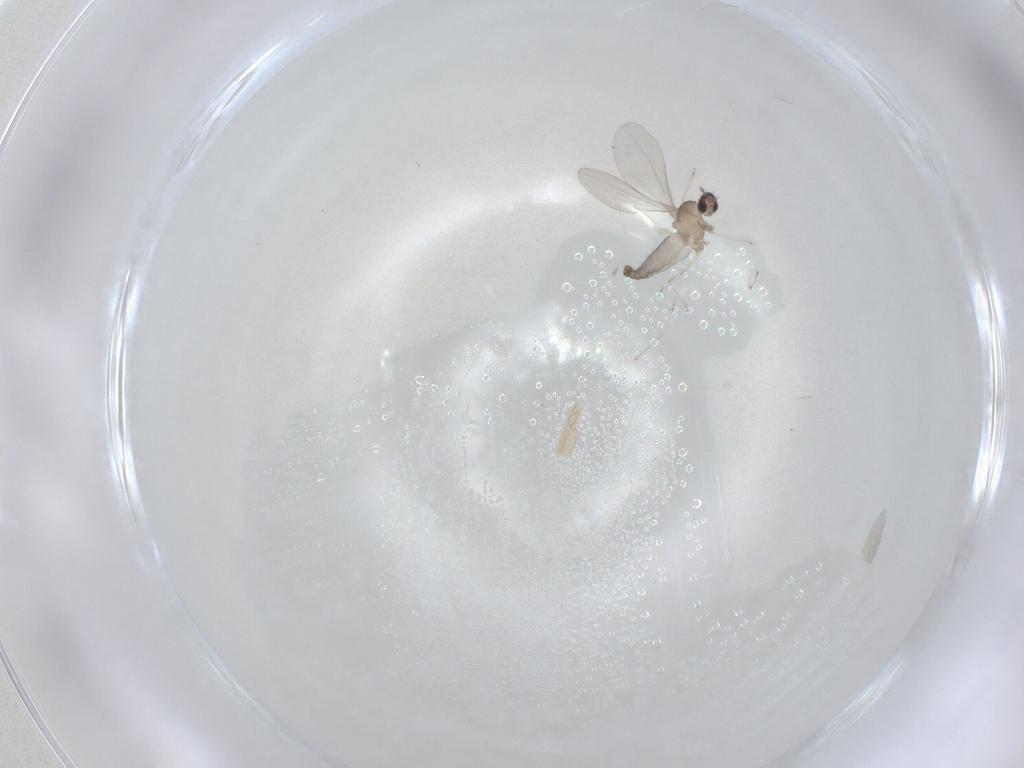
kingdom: Animalia
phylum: Arthropoda
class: Insecta
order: Diptera
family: Cecidomyiidae
